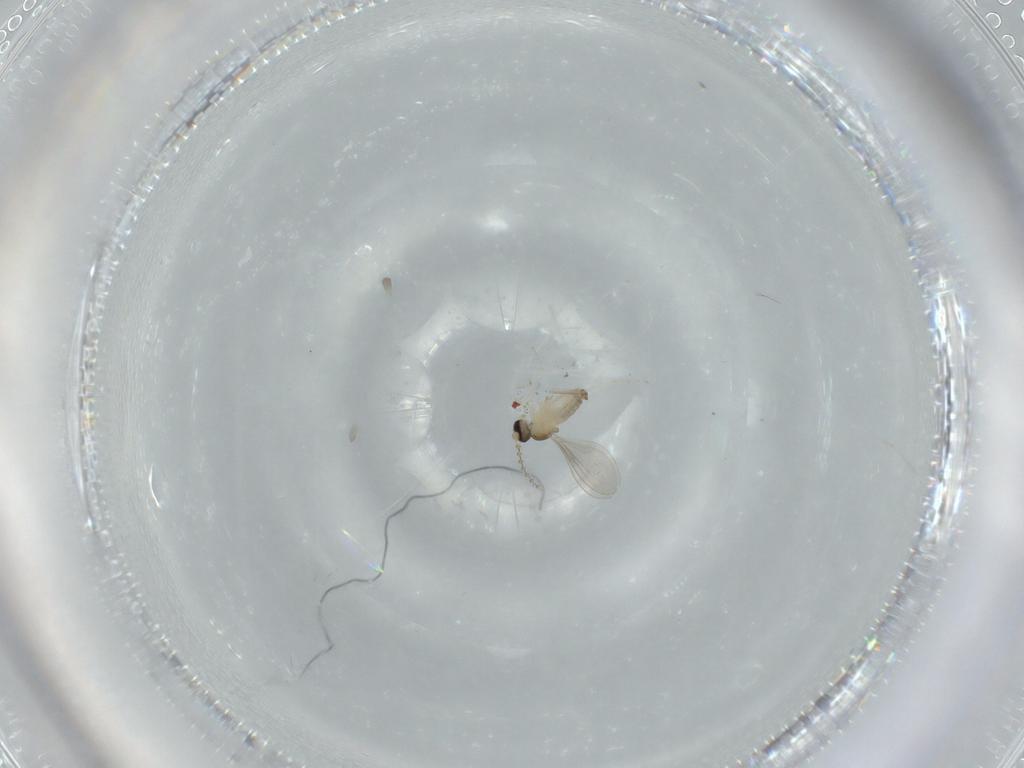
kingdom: Animalia
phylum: Arthropoda
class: Insecta
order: Diptera
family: Cecidomyiidae
